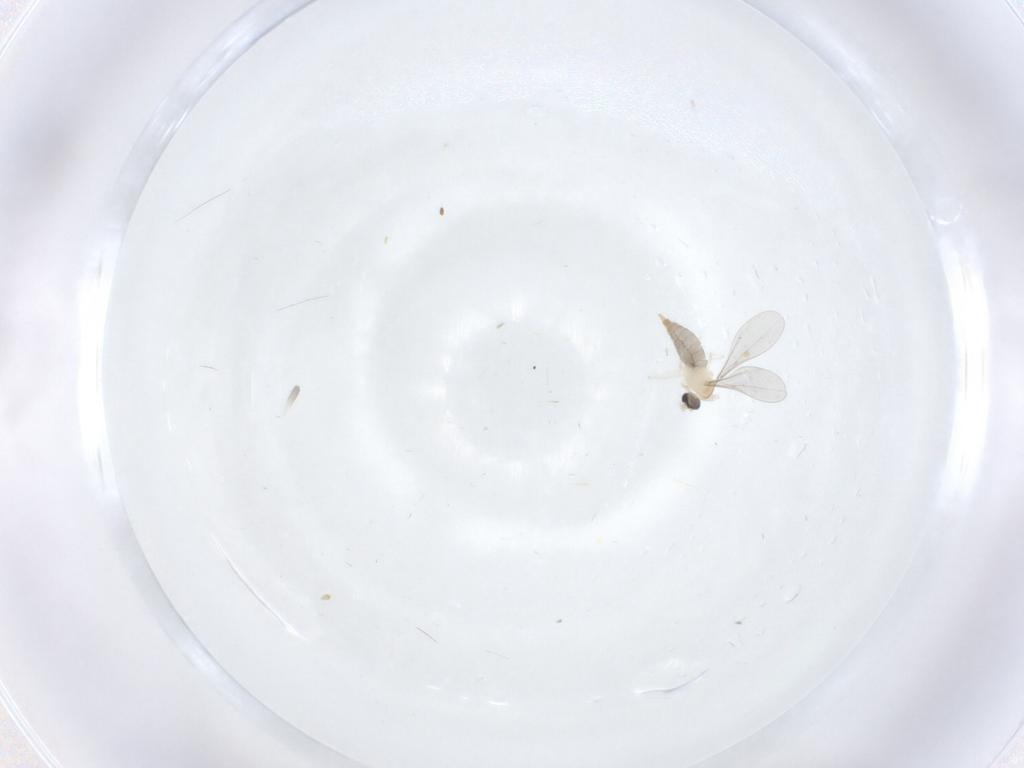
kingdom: Animalia
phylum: Arthropoda
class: Insecta
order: Diptera
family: Cecidomyiidae
